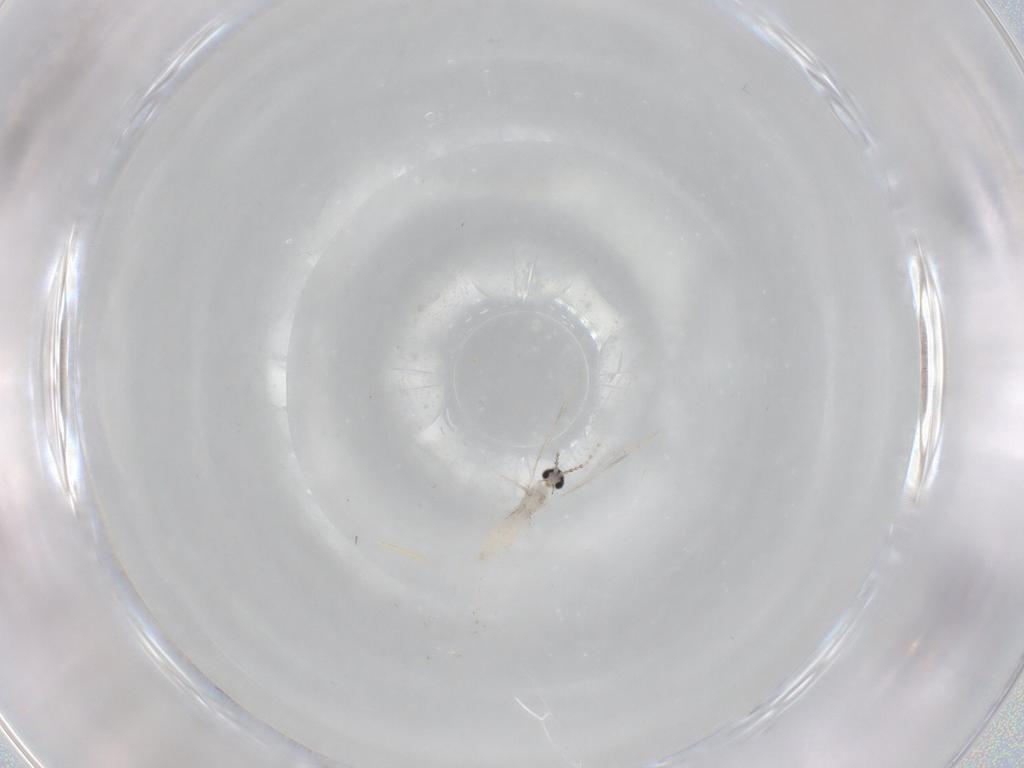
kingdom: Animalia
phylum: Arthropoda
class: Insecta
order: Diptera
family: Cecidomyiidae
